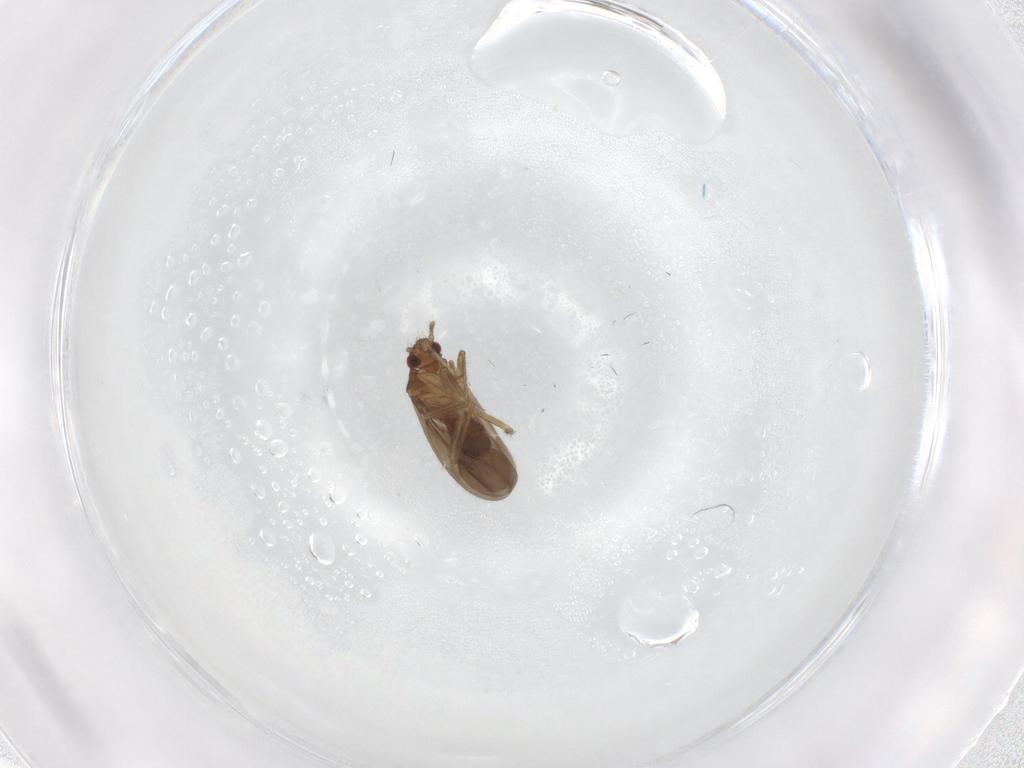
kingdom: Animalia
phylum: Arthropoda
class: Insecta
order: Hemiptera
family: Ceratocombidae
